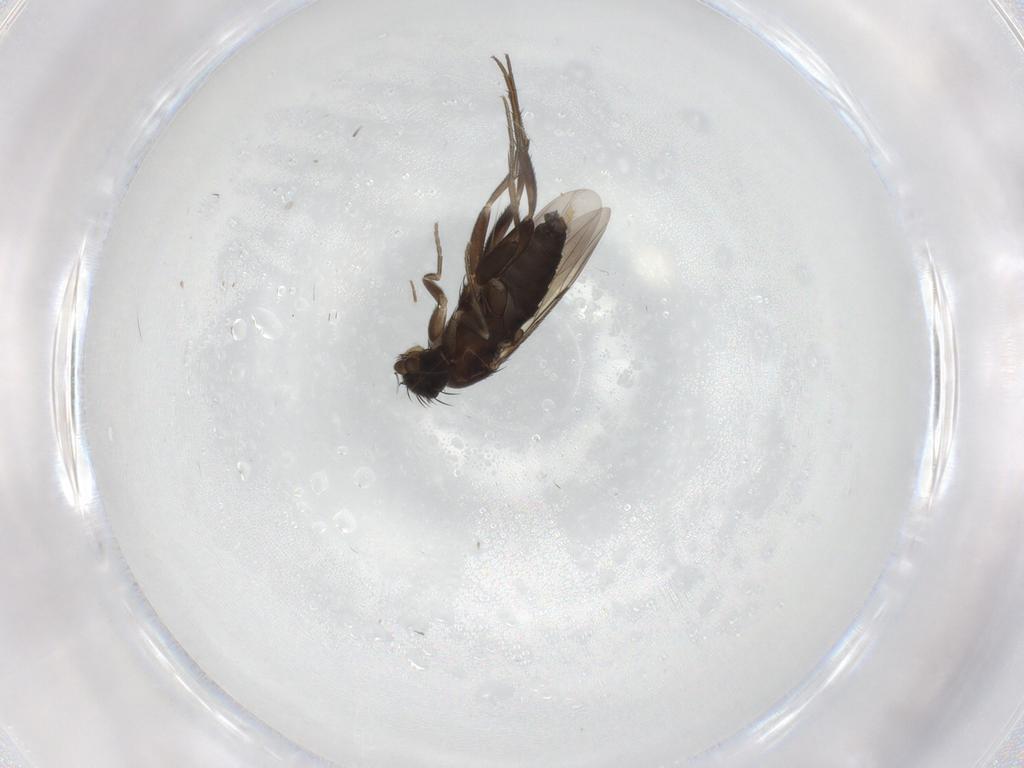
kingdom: Animalia
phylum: Arthropoda
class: Insecta
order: Diptera
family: Phoridae
